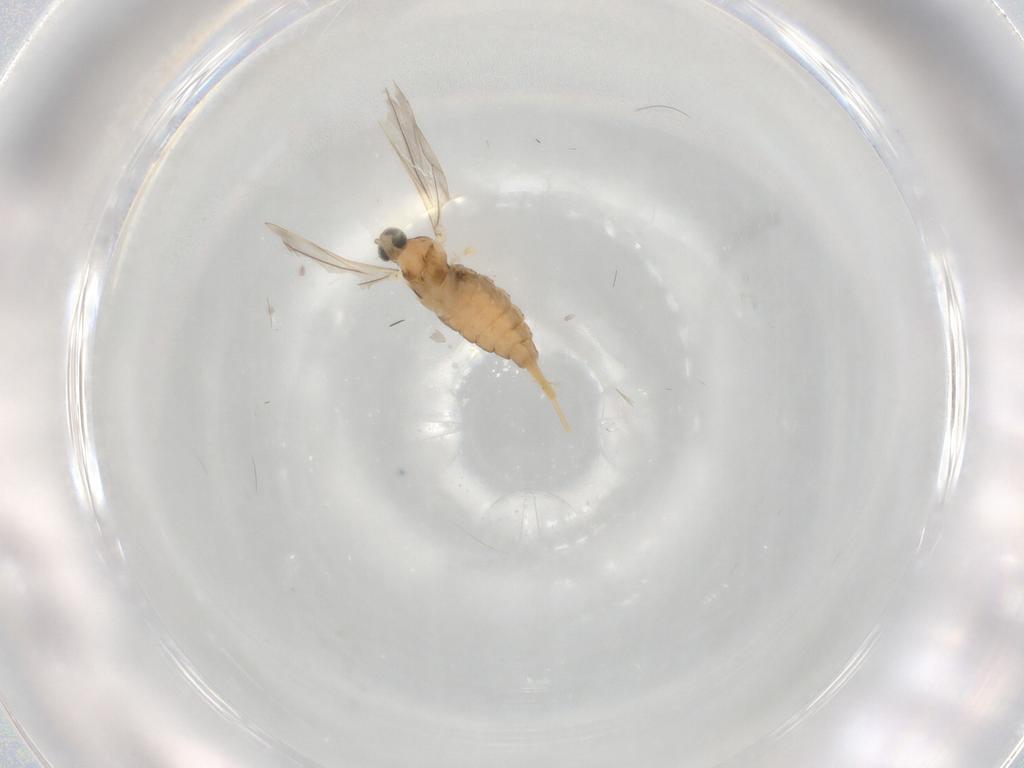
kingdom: Animalia
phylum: Arthropoda
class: Insecta
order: Diptera
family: Cecidomyiidae
